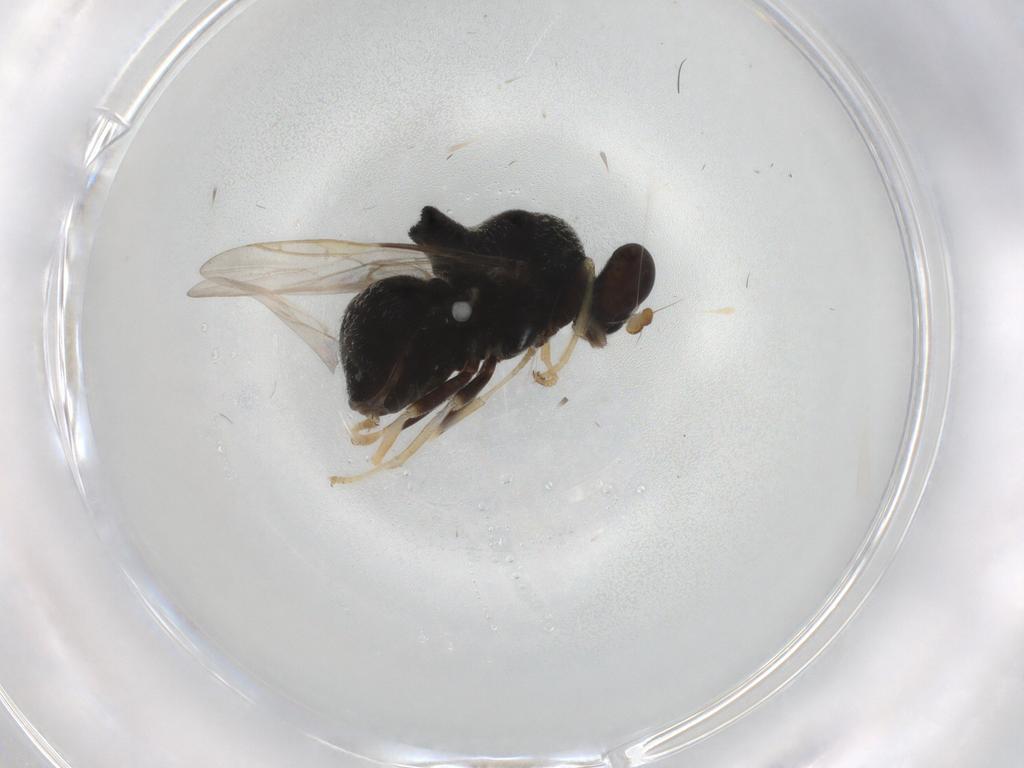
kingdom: Animalia
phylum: Arthropoda
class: Insecta
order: Diptera
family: Stratiomyidae
